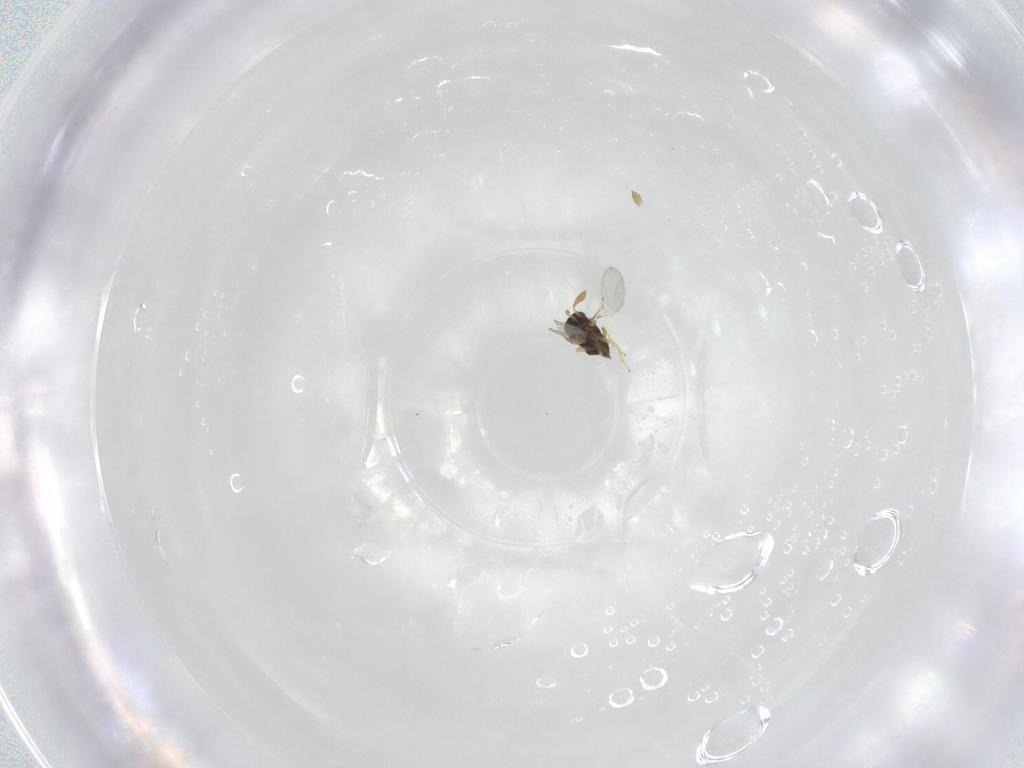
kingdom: Animalia
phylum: Arthropoda
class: Insecta
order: Hymenoptera
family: Encyrtidae
